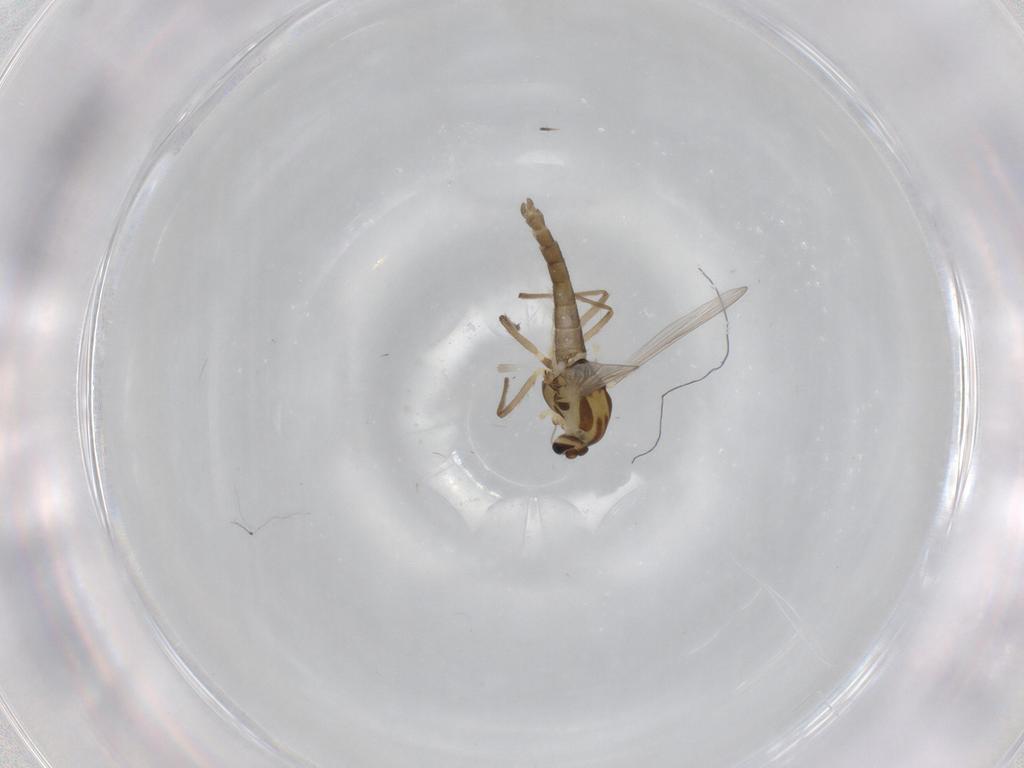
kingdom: Animalia
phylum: Arthropoda
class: Insecta
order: Diptera
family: Chironomidae
